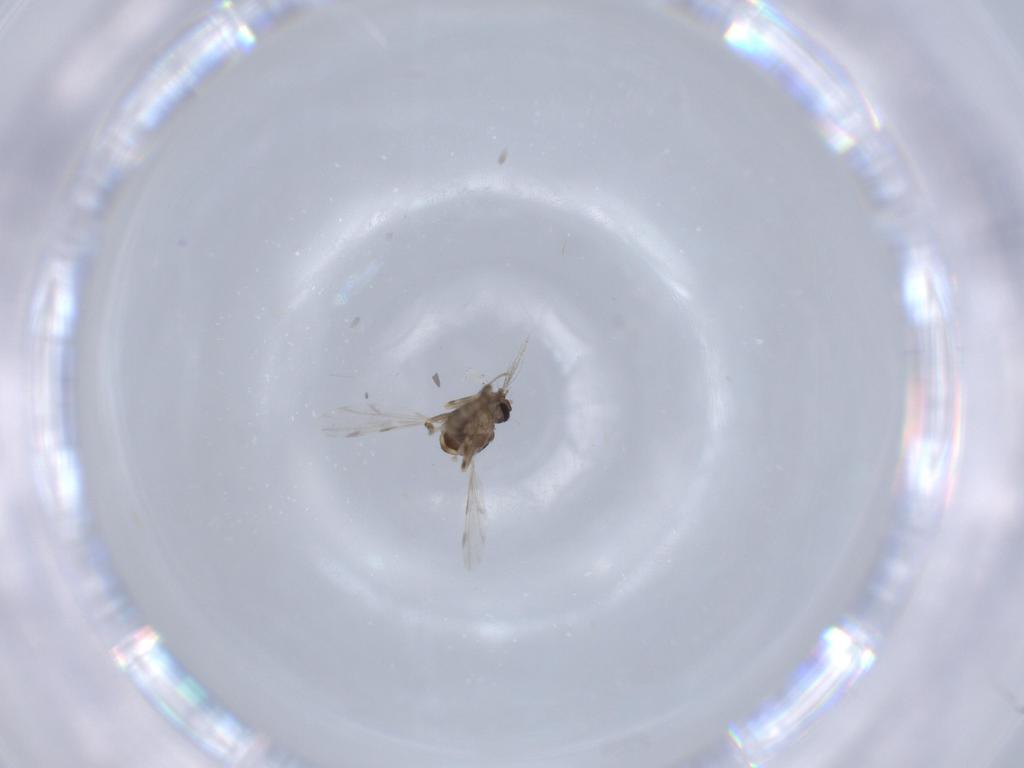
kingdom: Animalia
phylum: Arthropoda
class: Insecta
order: Diptera
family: Ceratopogonidae
